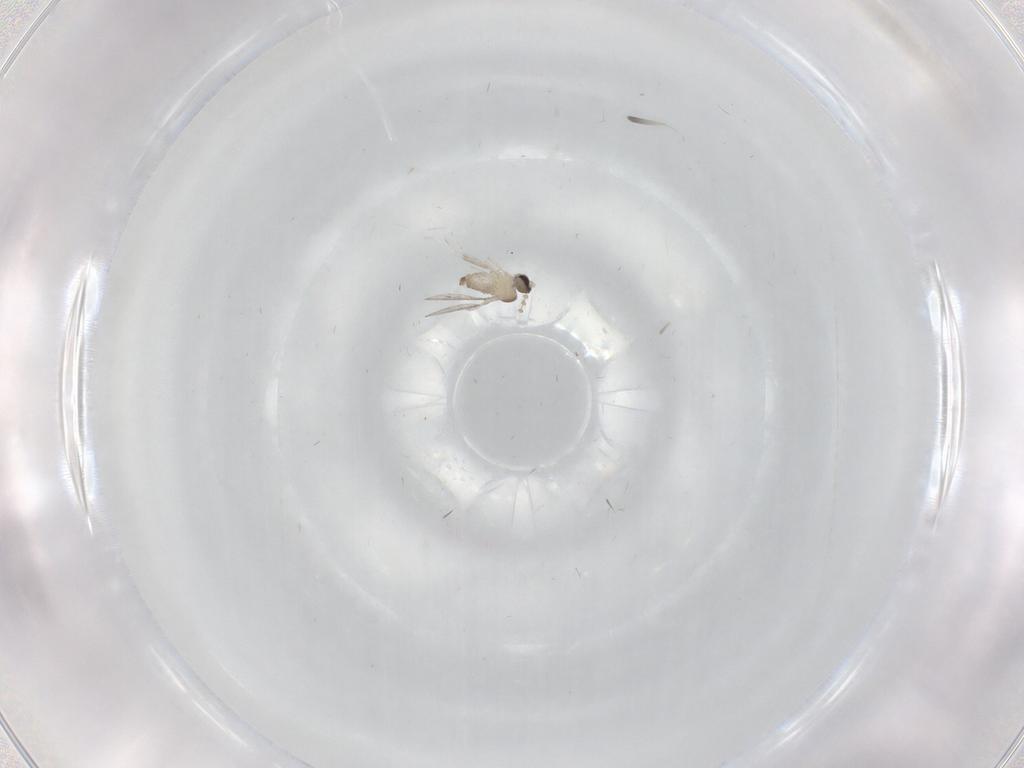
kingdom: Animalia
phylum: Arthropoda
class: Insecta
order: Diptera
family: Cecidomyiidae
